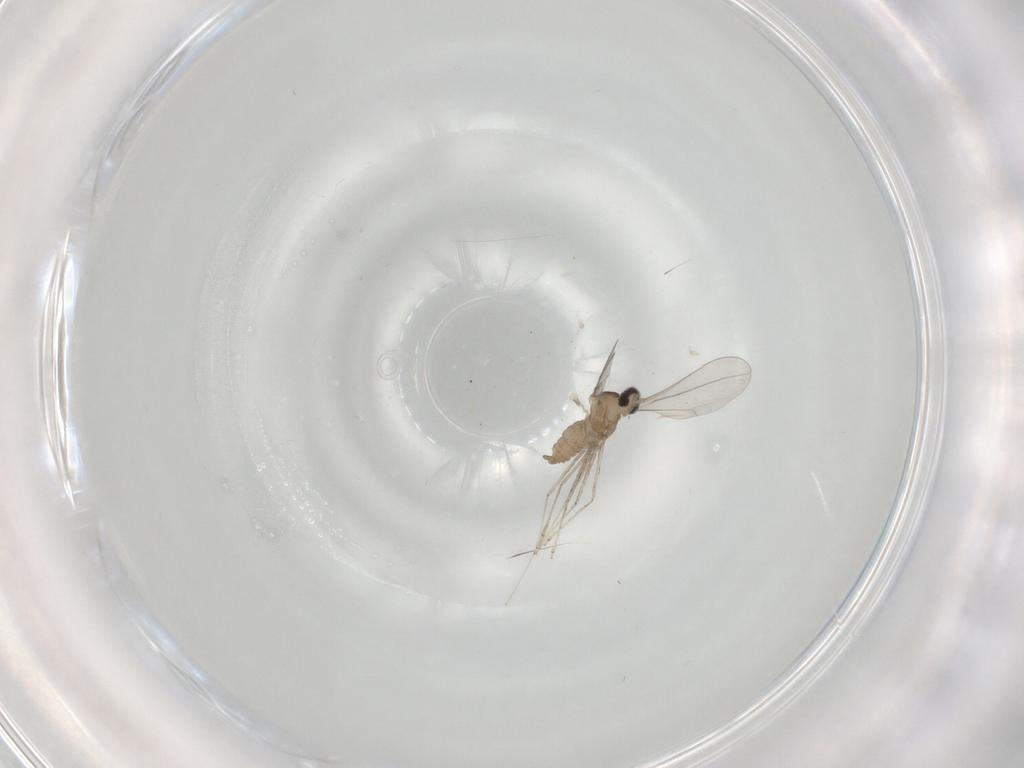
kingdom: Animalia
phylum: Arthropoda
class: Insecta
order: Diptera
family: Cecidomyiidae
